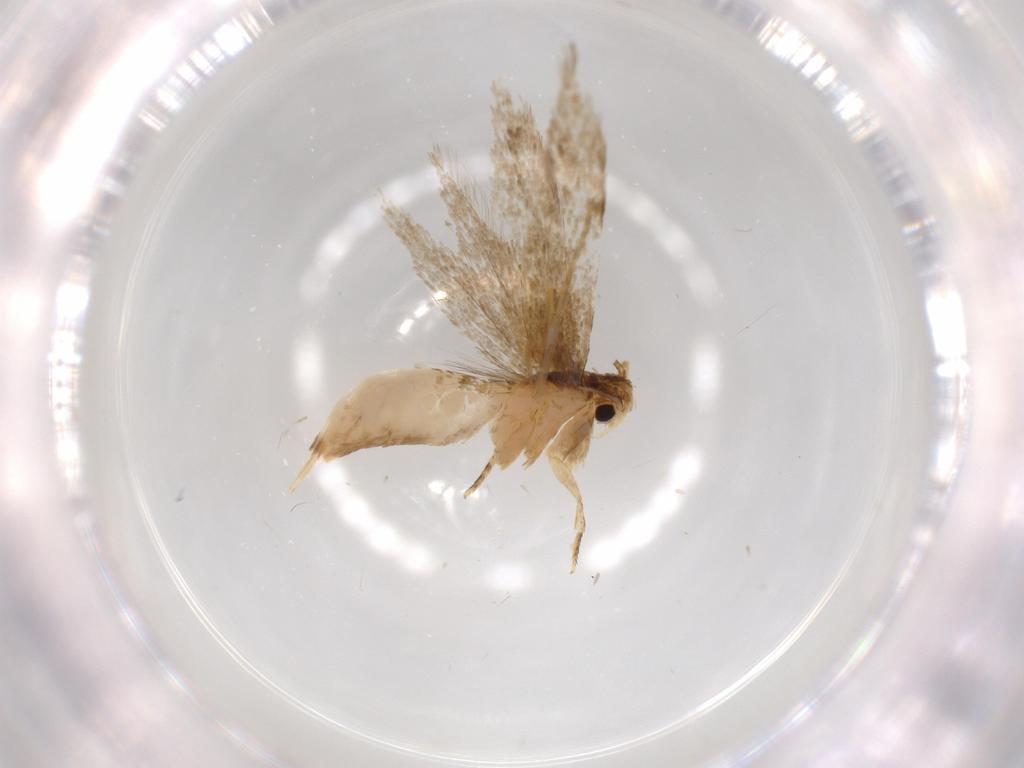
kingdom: Animalia
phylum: Arthropoda
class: Insecta
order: Lepidoptera
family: Tineidae
